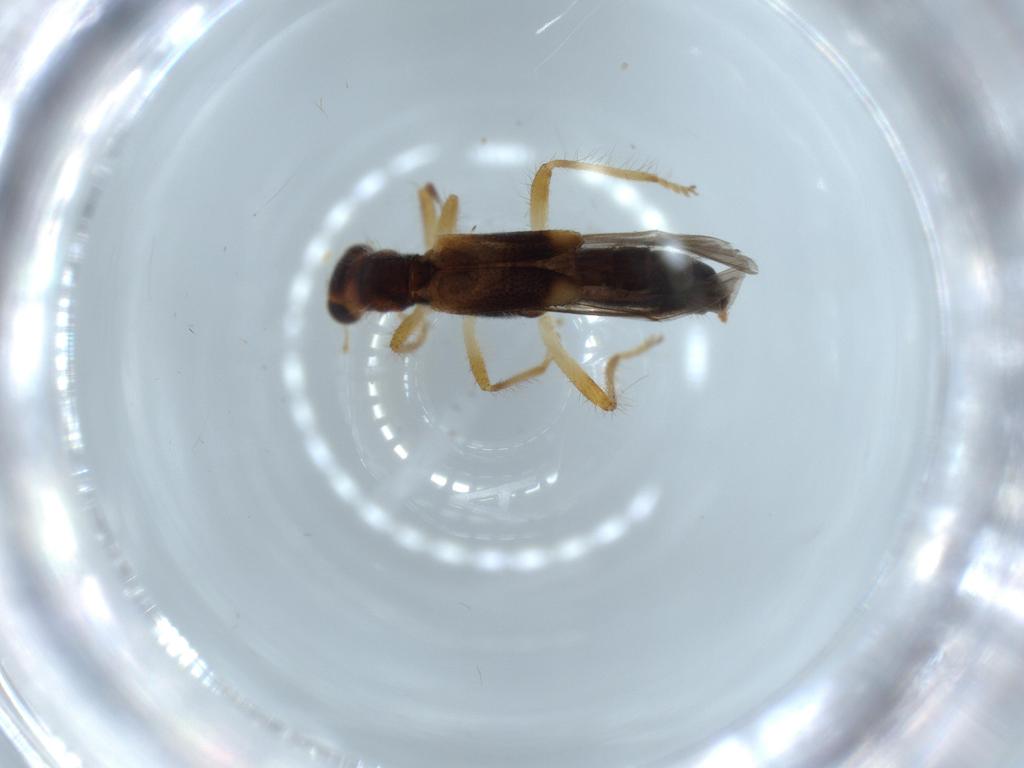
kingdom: Animalia
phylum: Arthropoda
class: Insecta
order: Coleoptera
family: Cleridae
